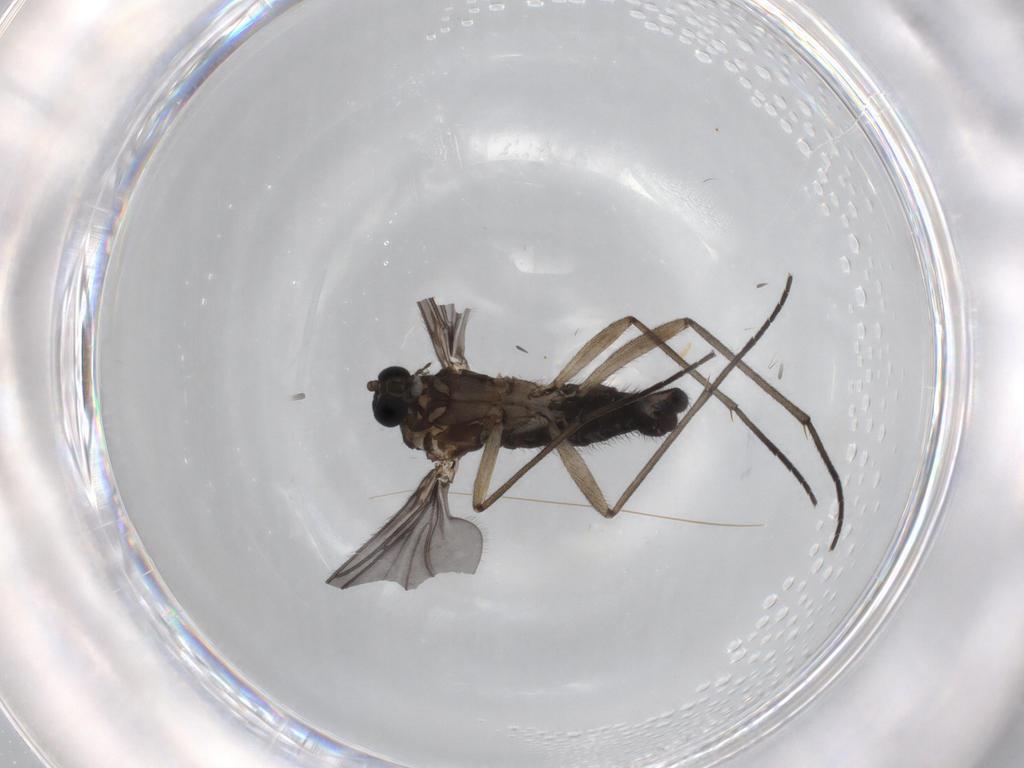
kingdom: Animalia
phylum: Arthropoda
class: Insecta
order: Diptera
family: Sciaridae
